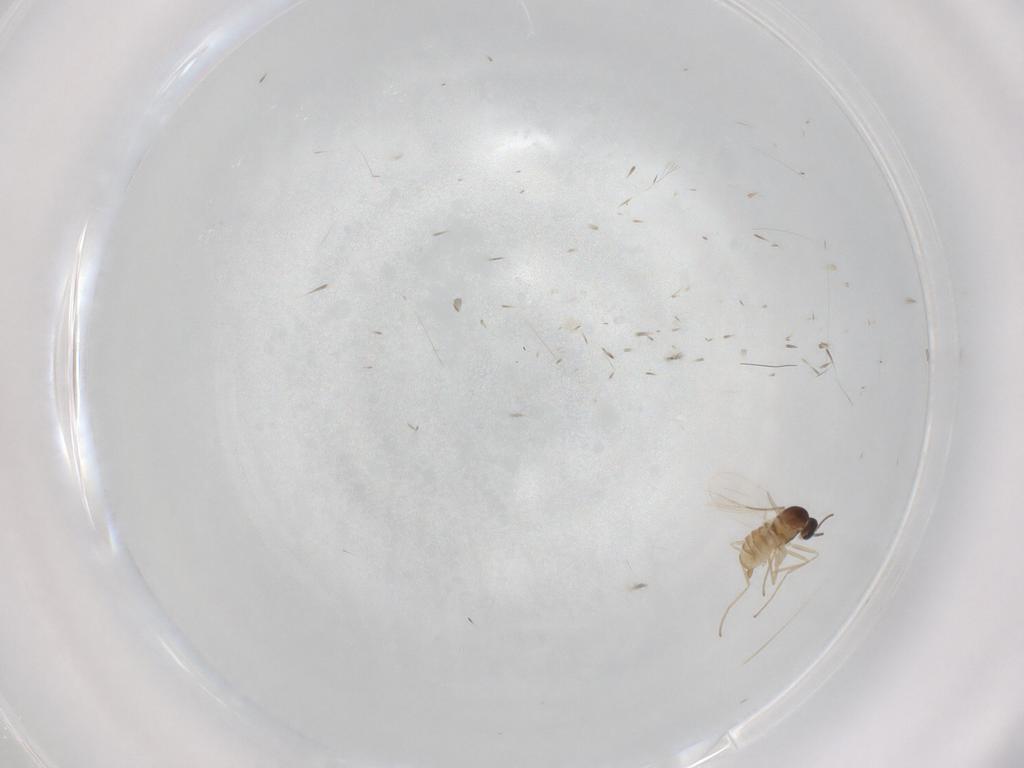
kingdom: Animalia
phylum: Arthropoda
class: Insecta
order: Diptera
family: Cecidomyiidae
